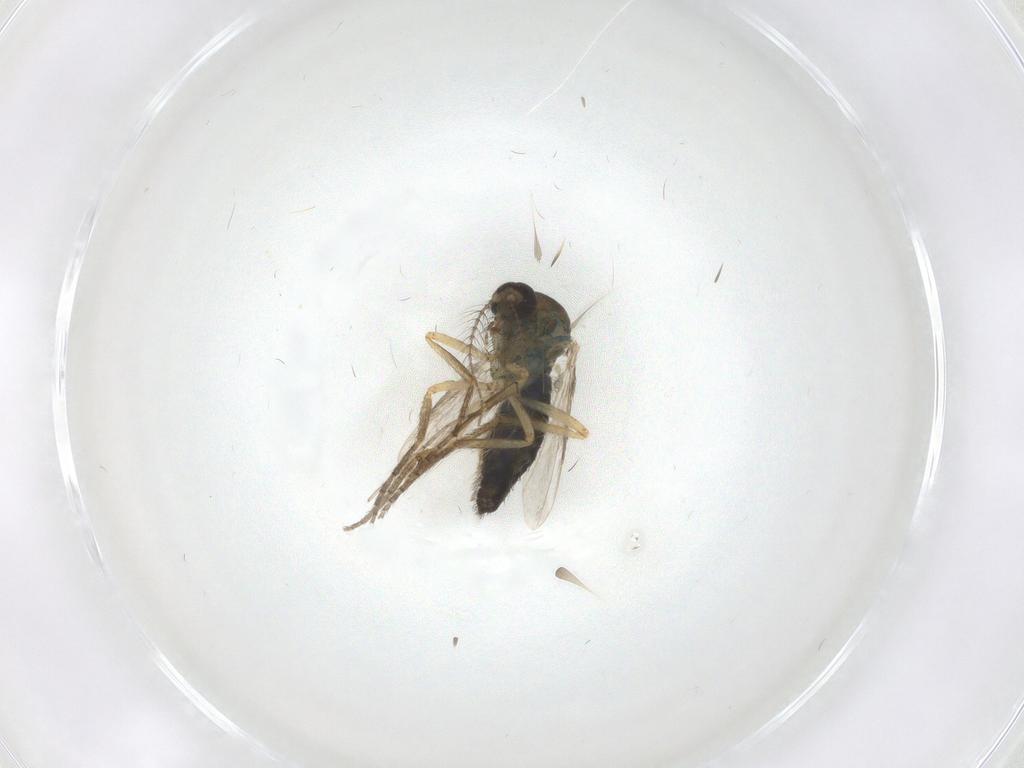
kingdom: Animalia
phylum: Arthropoda
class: Insecta
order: Diptera
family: Ceratopogonidae
